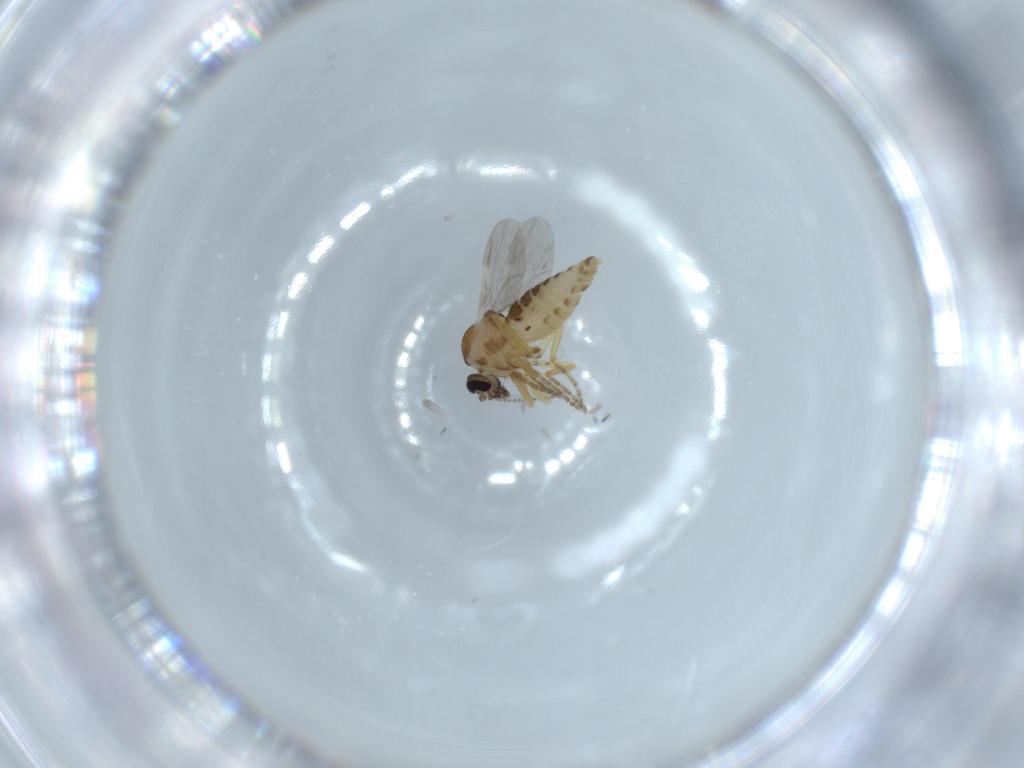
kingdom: Animalia
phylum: Arthropoda
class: Insecta
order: Diptera
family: Ceratopogonidae
